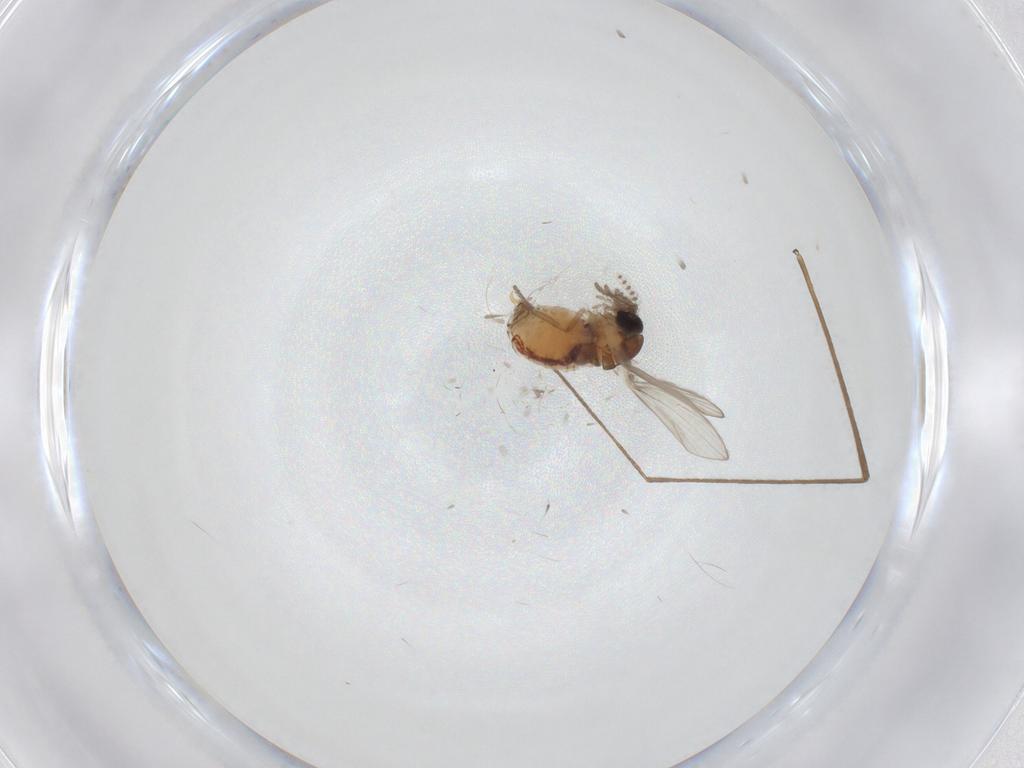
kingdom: Animalia
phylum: Arthropoda
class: Insecta
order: Diptera
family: Psychodidae
